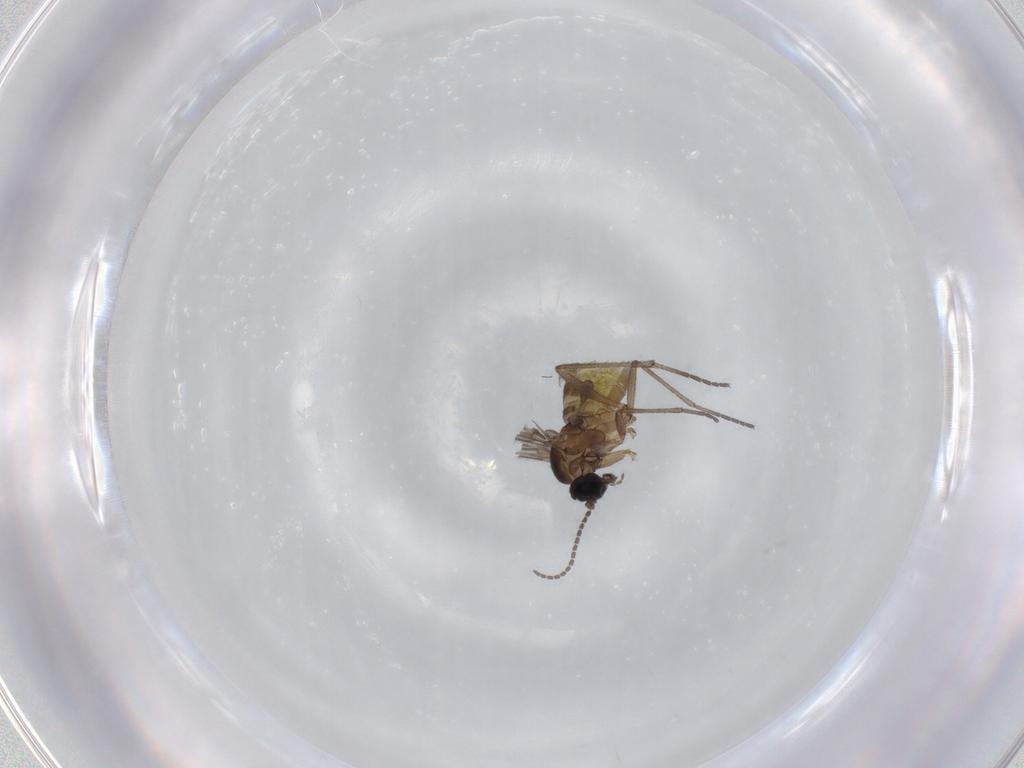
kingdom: Animalia
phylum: Arthropoda
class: Insecta
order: Diptera
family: Sciaridae
